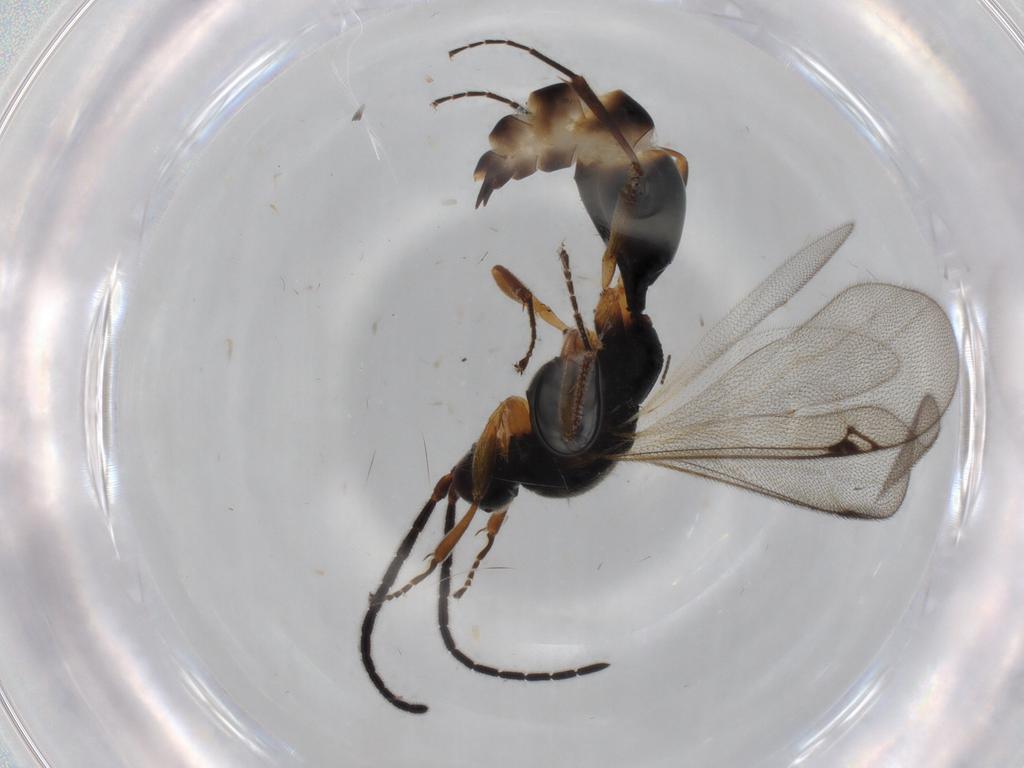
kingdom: Animalia
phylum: Arthropoda
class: Insecta
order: Hymenoptera
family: Proctotrupidae
